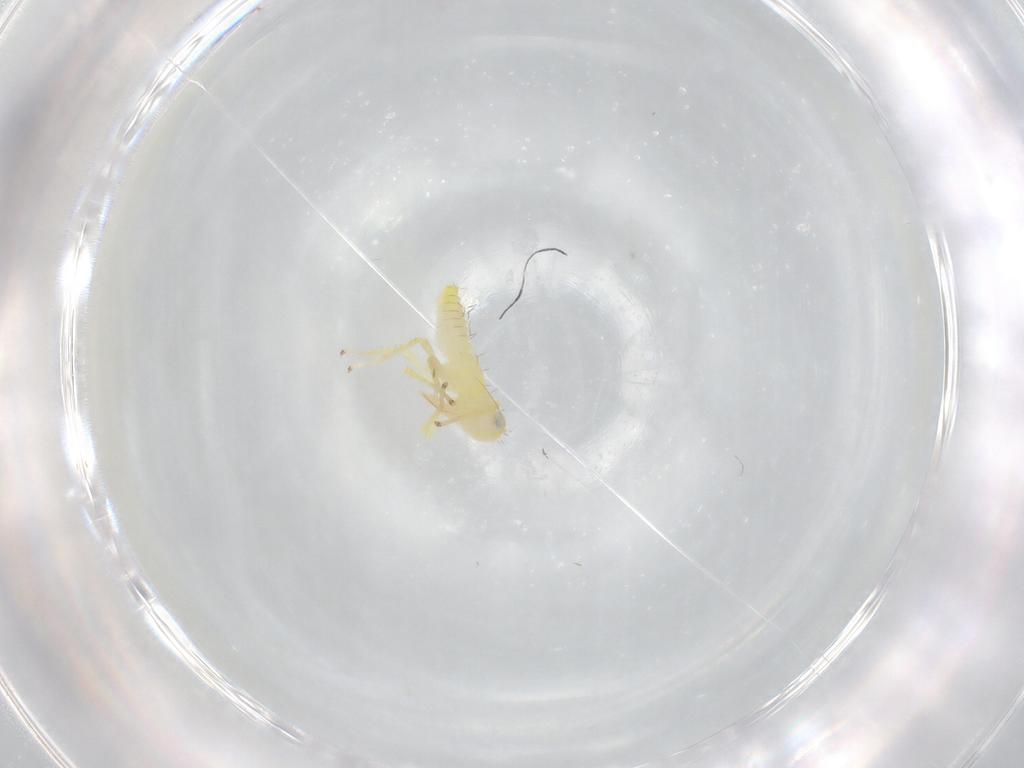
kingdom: Animalia
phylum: Arthropoda
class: Insecta
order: Hemiptera
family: Cicadellidae
